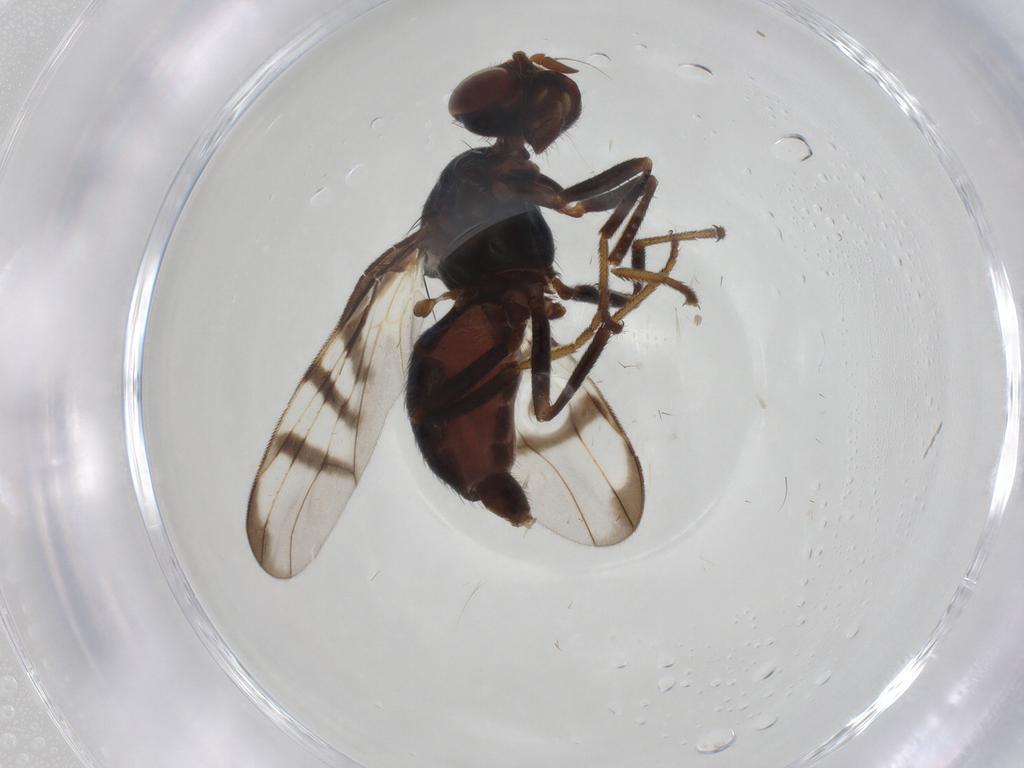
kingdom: Animalia
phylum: Arthropoda
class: Insecta
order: Diptera
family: Platystomatidae
